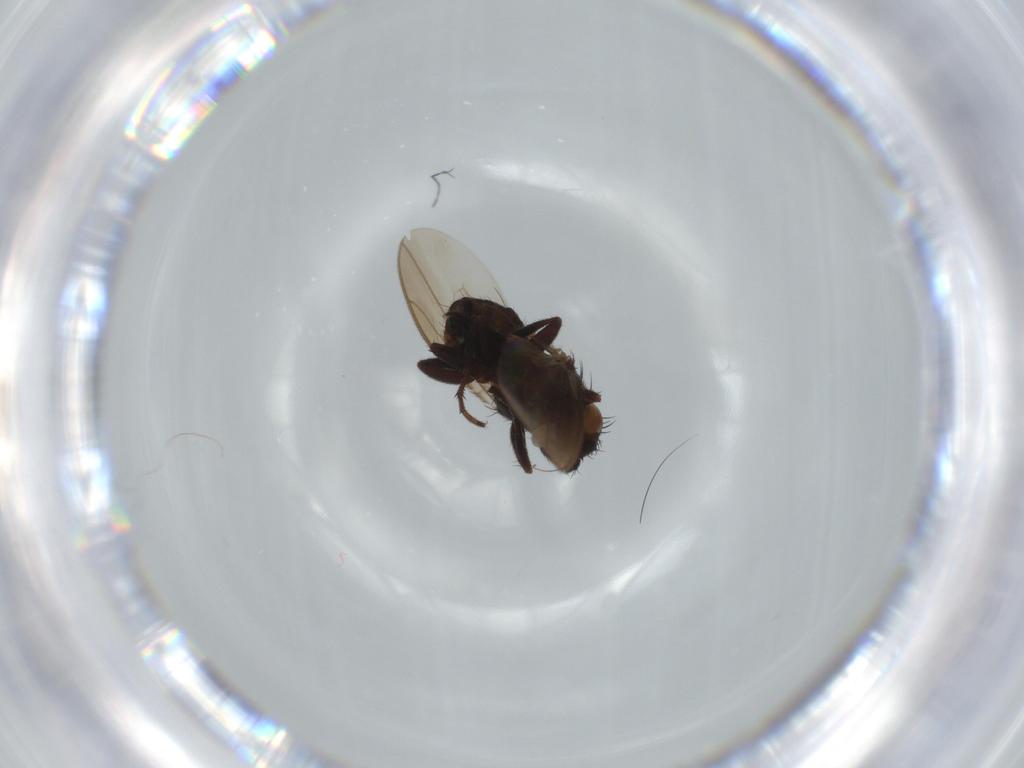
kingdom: Animalia
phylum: Arthropoda
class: Insecta
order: Diptera
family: Sphaeroceridae
